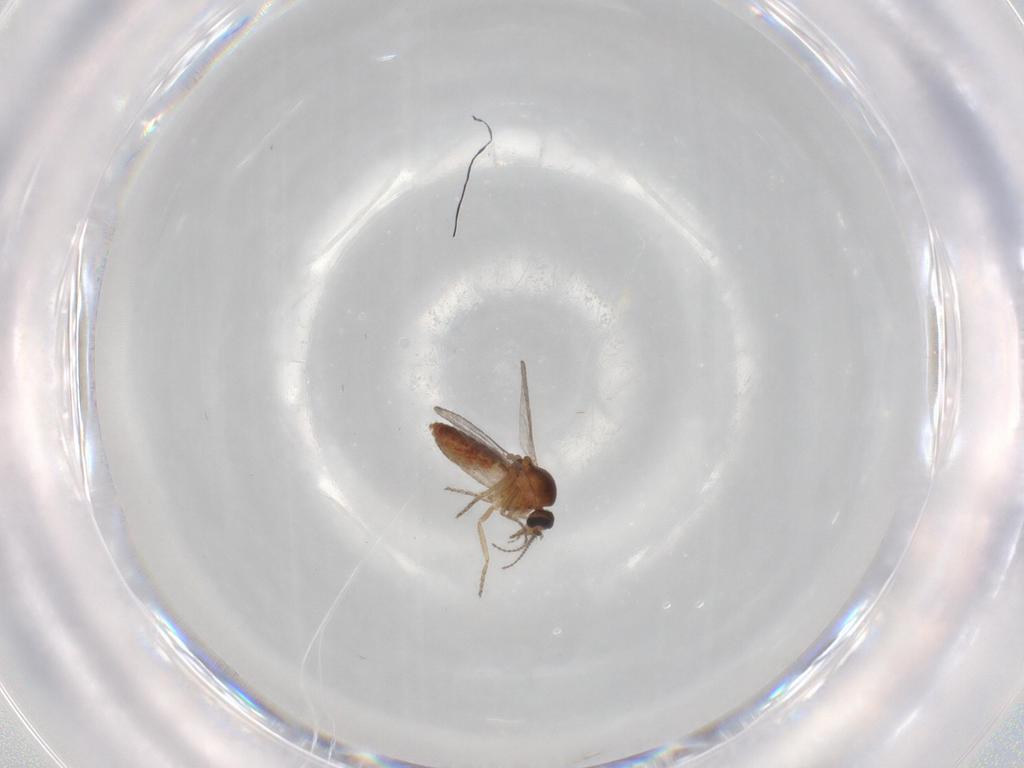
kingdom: Animalia
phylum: Arthropoda
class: Insecta
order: Diptera
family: Ceratopogonidae
